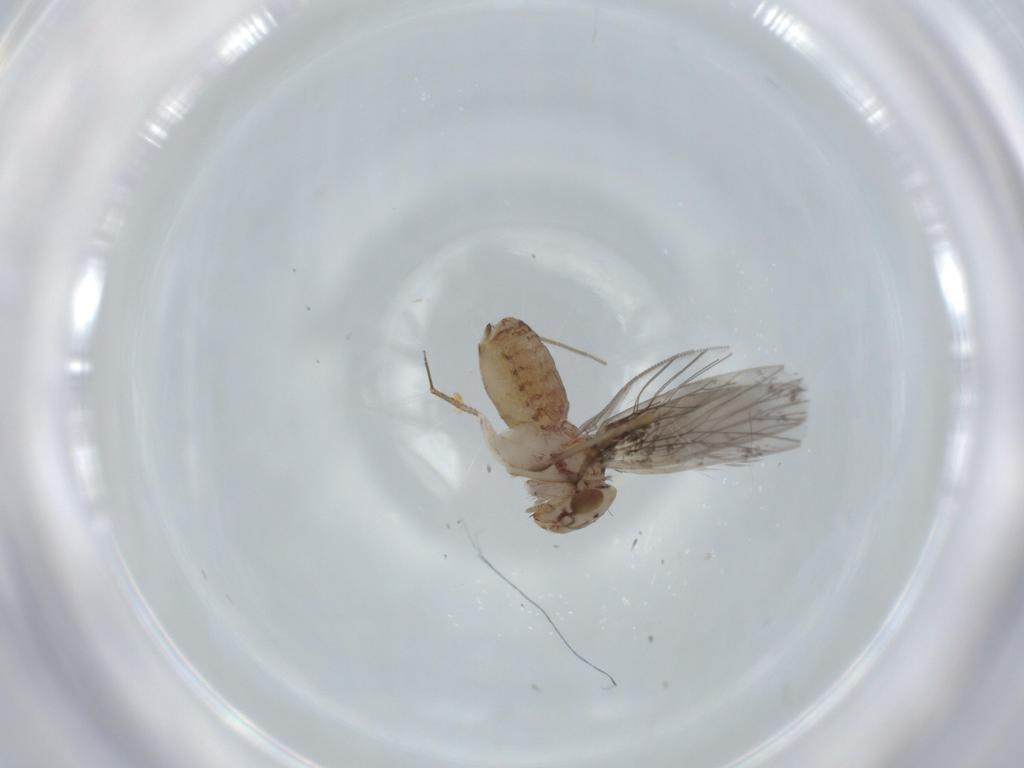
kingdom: Animalia
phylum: Arthropoda
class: Insecta
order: Psocodea
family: Lepidopsocidae
